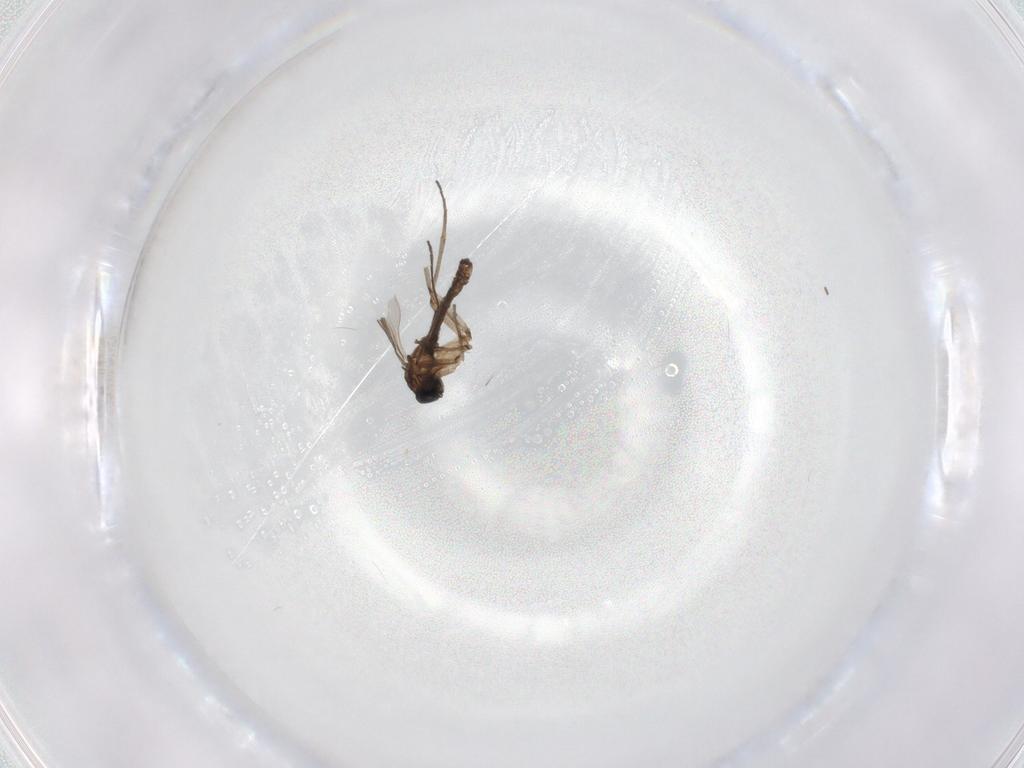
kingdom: Animalia
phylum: Arthropoda
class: Insecta
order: Diptera
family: Sciaridae
